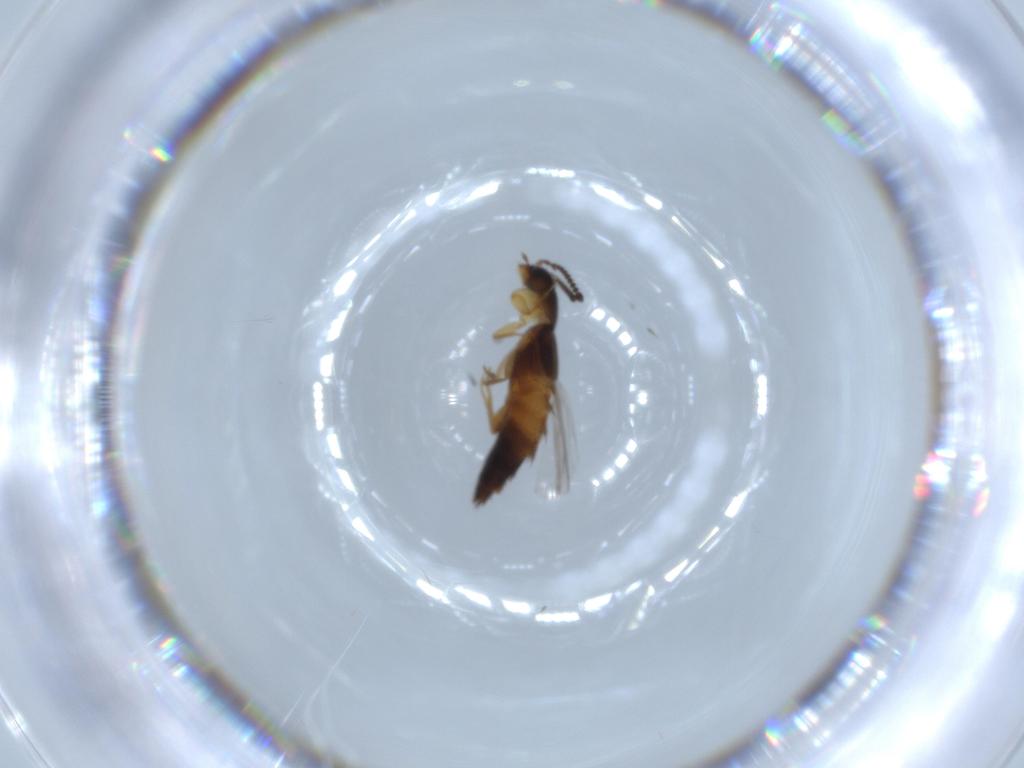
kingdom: Animalia
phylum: Arthropoda
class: Insecta
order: Coleoptera
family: Staphylinidae
